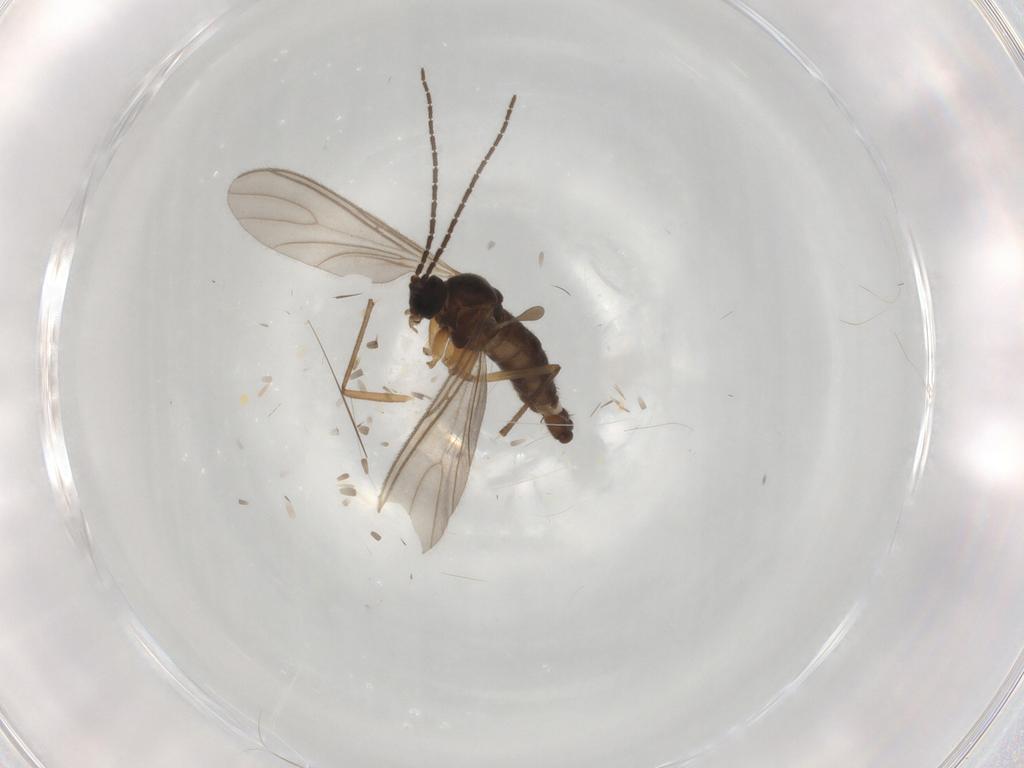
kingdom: Animalia
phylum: Arthropoda
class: Insecta
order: Diptera
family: Sciaridae
